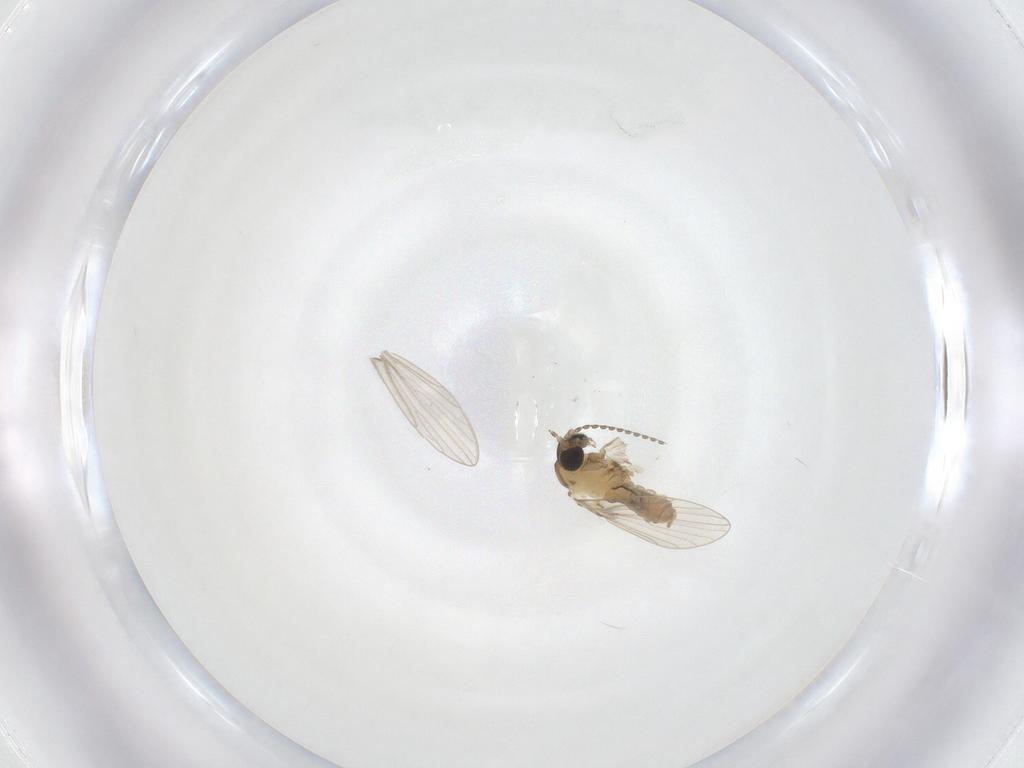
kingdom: Animalia
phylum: Arthropoda
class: Insecta
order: Diptera
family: Psychodidae
